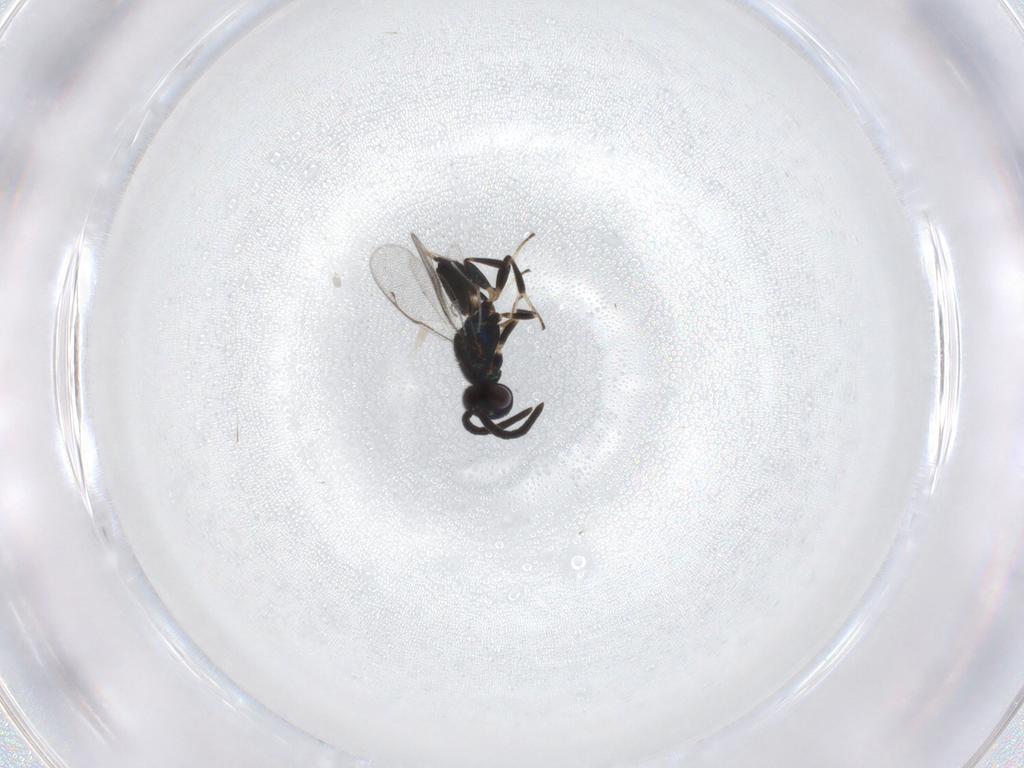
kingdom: Animalia
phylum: Arthropoda
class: Insecta
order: Hymenoptera
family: Eupelmidae
